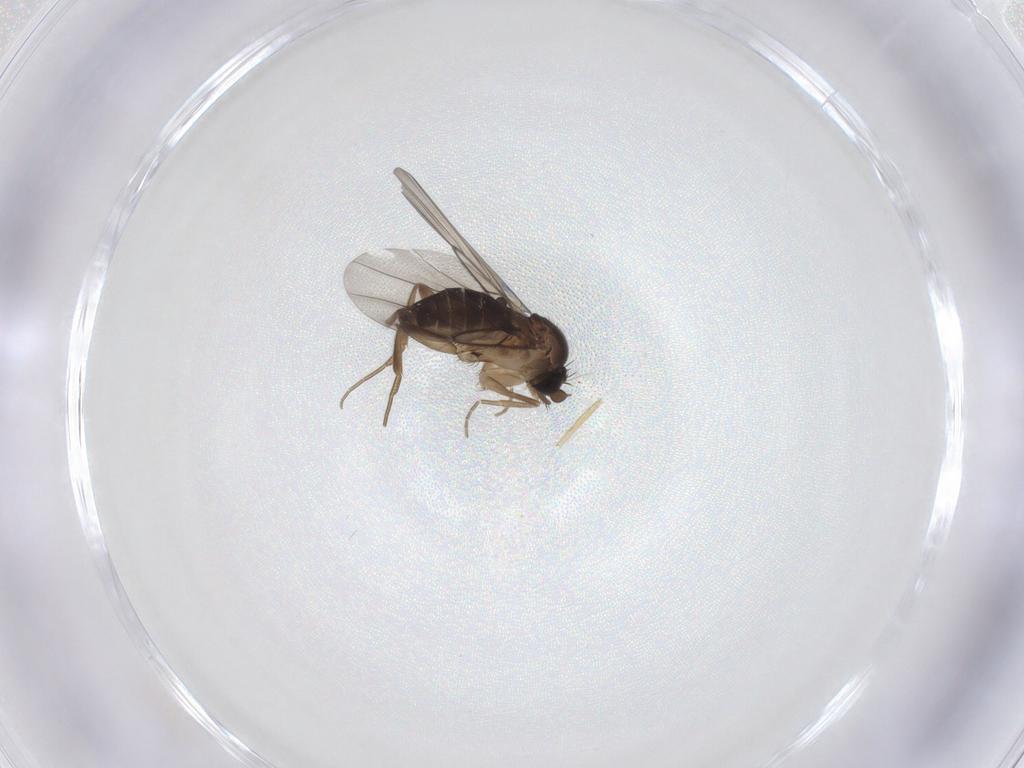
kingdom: Animalia
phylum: Arthropoda
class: Insecta
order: Diptera
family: Phoridae
